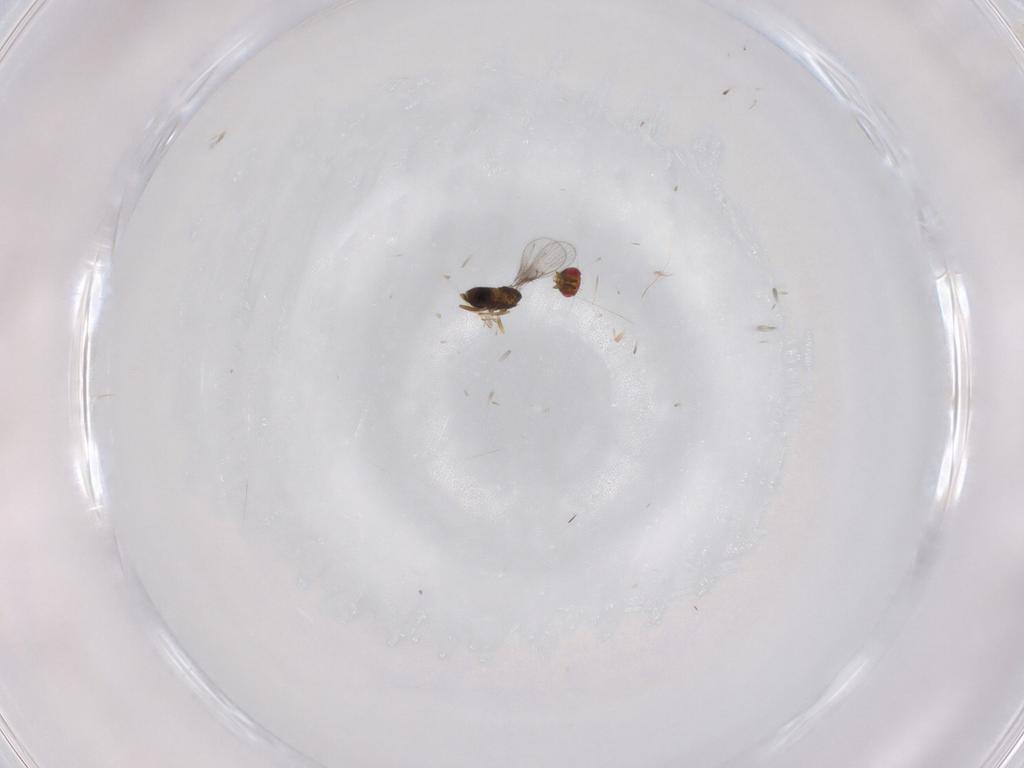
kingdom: Animalia
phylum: Arthropoda
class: Insecta
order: Hymenoptera
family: Trichogrammatidae
